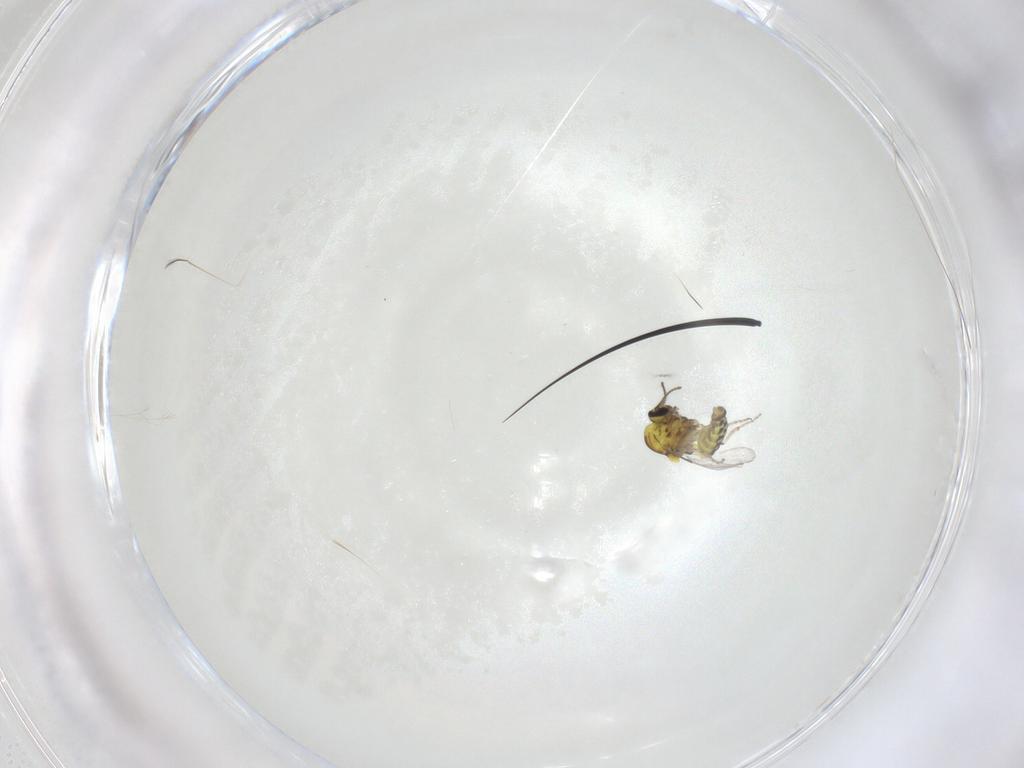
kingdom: Animalia
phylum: Arthropoda
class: Insecta
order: Diptera
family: Chironomidae
